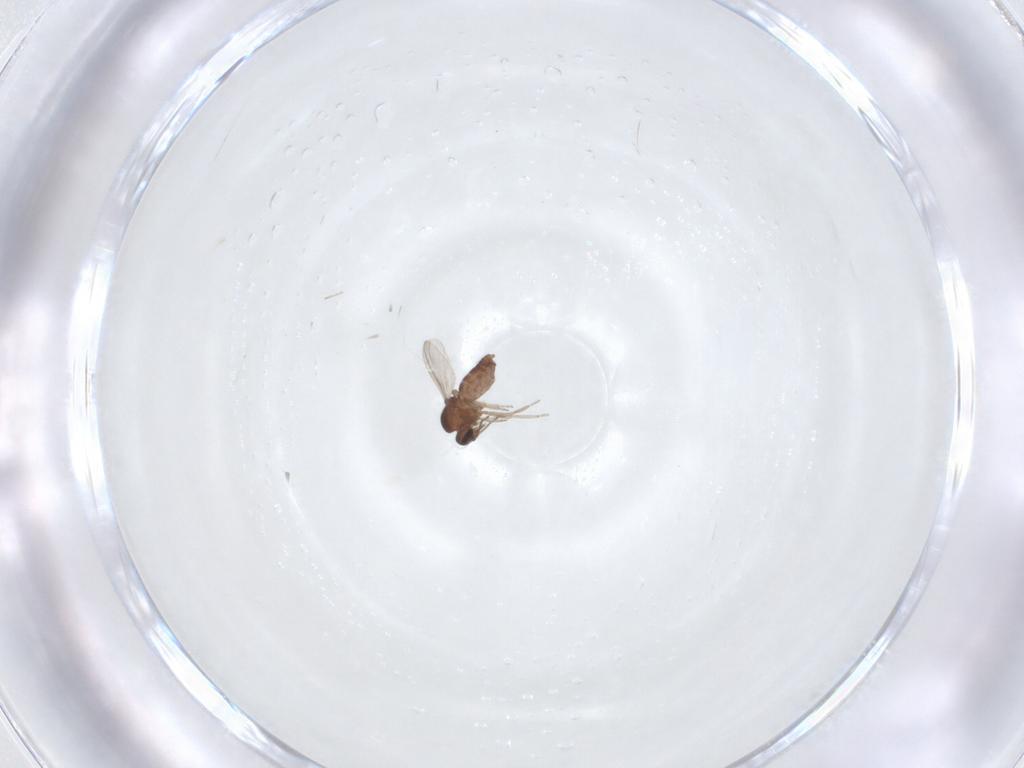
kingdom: Animalia
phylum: Arthropoda
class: Insecta
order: Diptera
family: Ceratopogonidae
